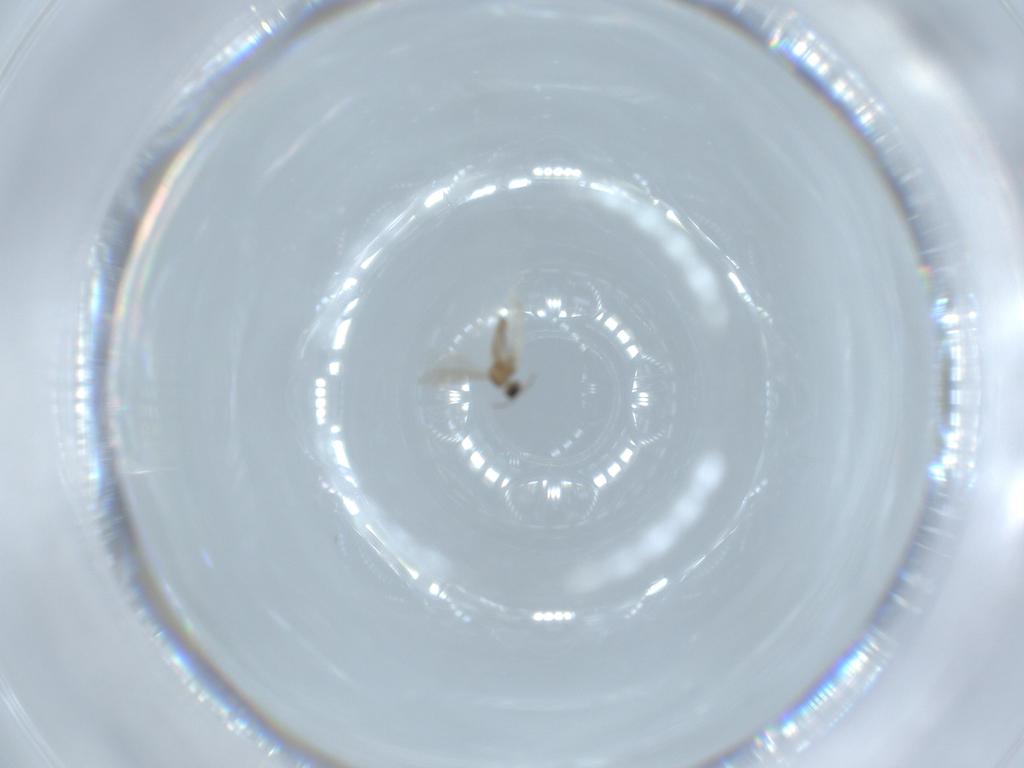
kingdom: Animalia
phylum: Arthropoda
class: Insecta
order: Diptera
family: Cecidomyiidae
